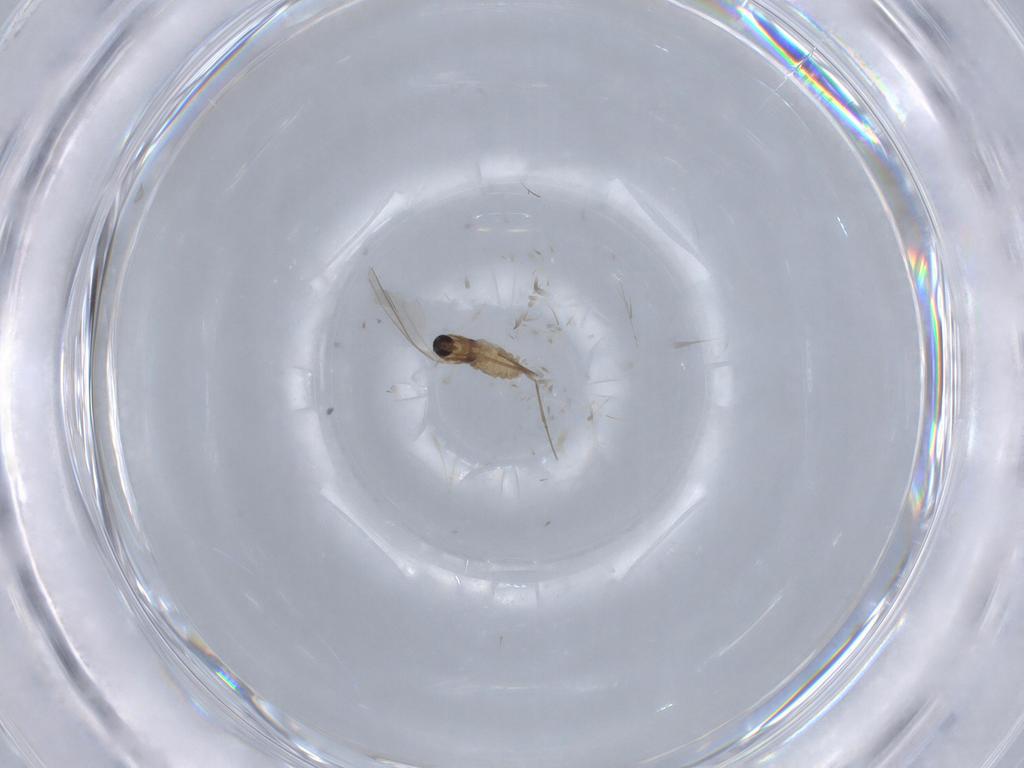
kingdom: Animalia
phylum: Arthropoda
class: Insecta
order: Diptera
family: Cecidomyiidae
